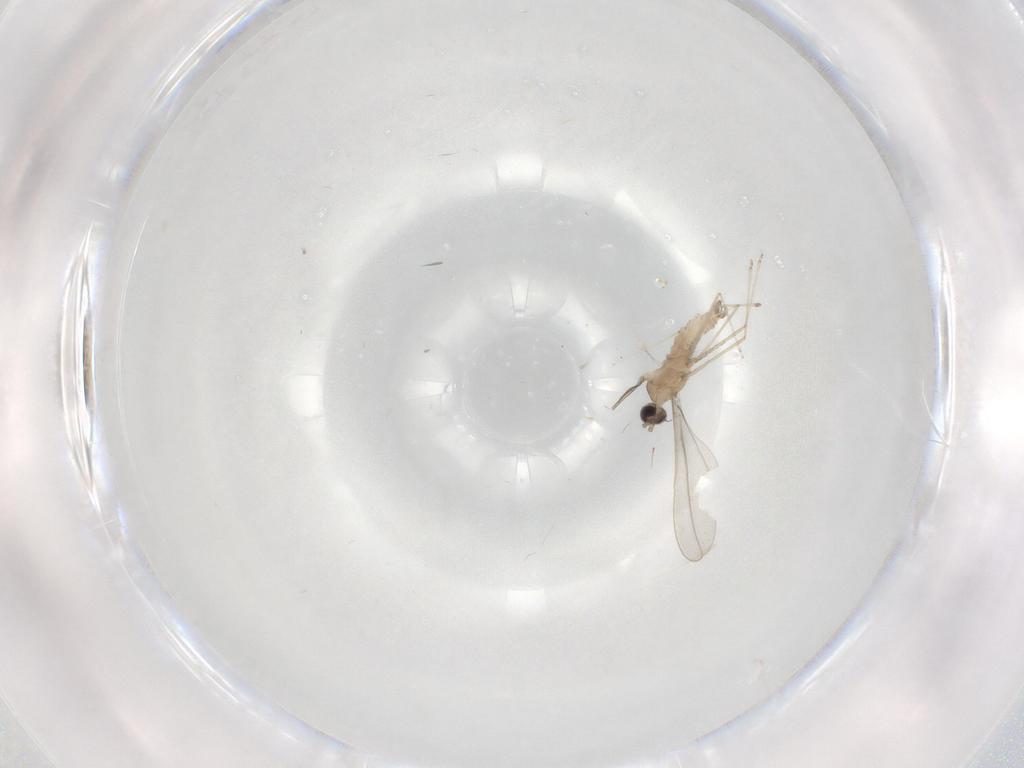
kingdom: Animalia
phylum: Arthropoda
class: Insecta
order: Diptera
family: Cecidomyiidae
